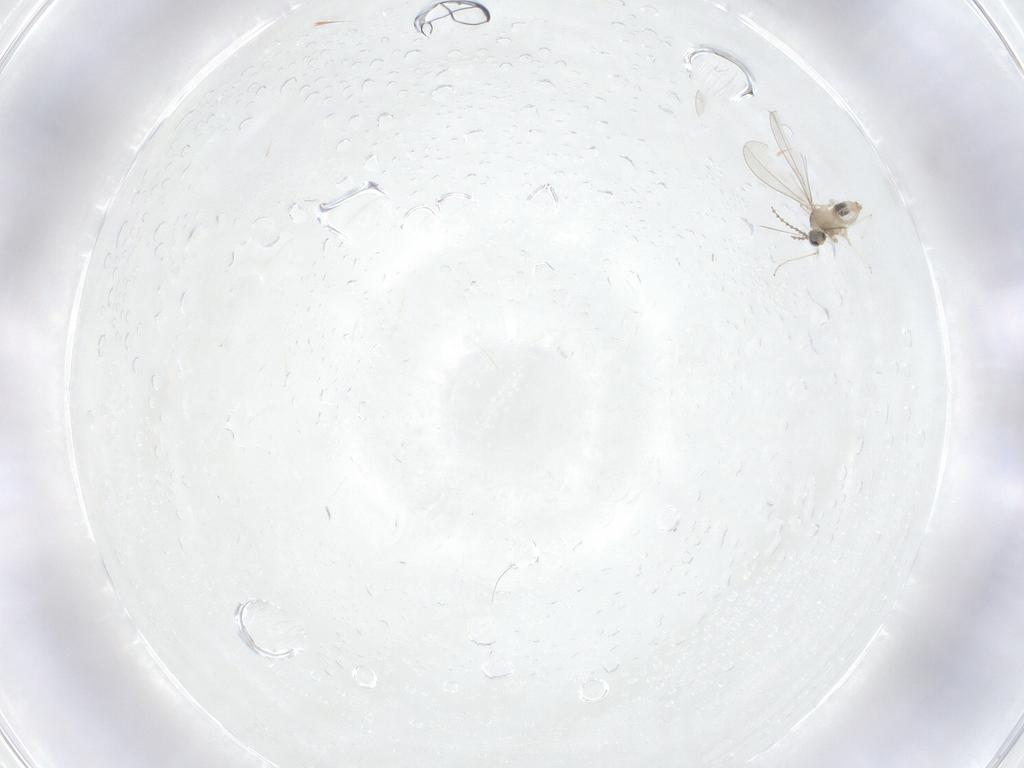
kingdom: Animalia
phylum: Arthropoda
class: Insecta
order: Diptera
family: Cecidomyiidae
